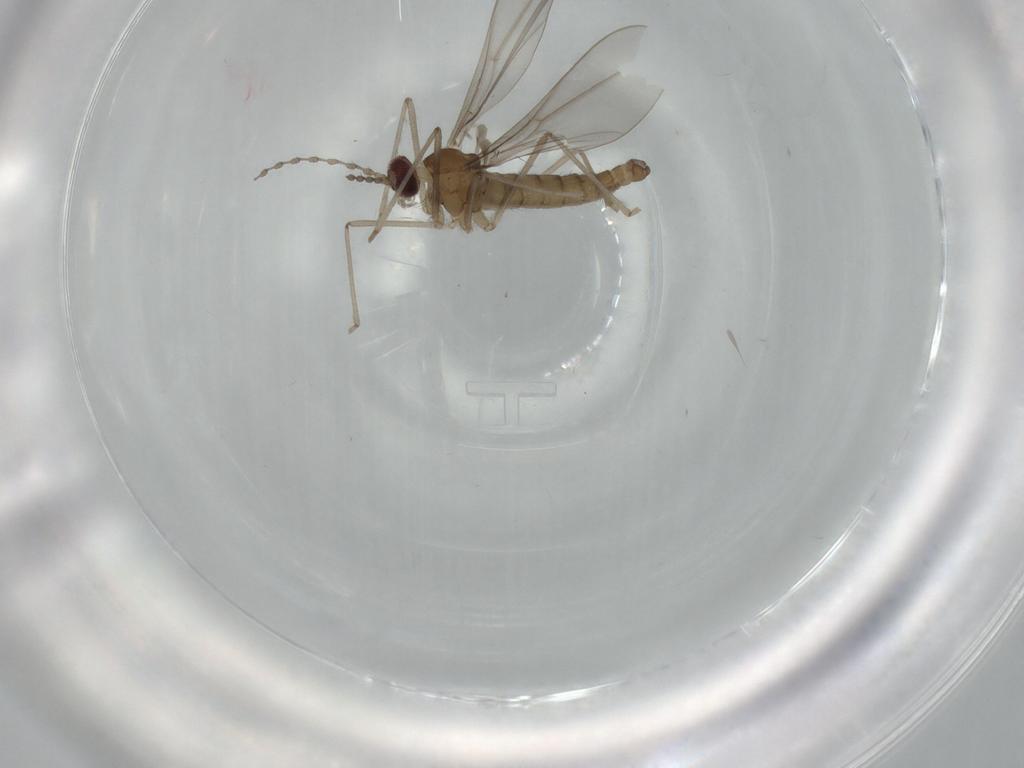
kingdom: Animalia
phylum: Arthropoda
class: Insecta
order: Diptera
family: Cecidomyiidae
